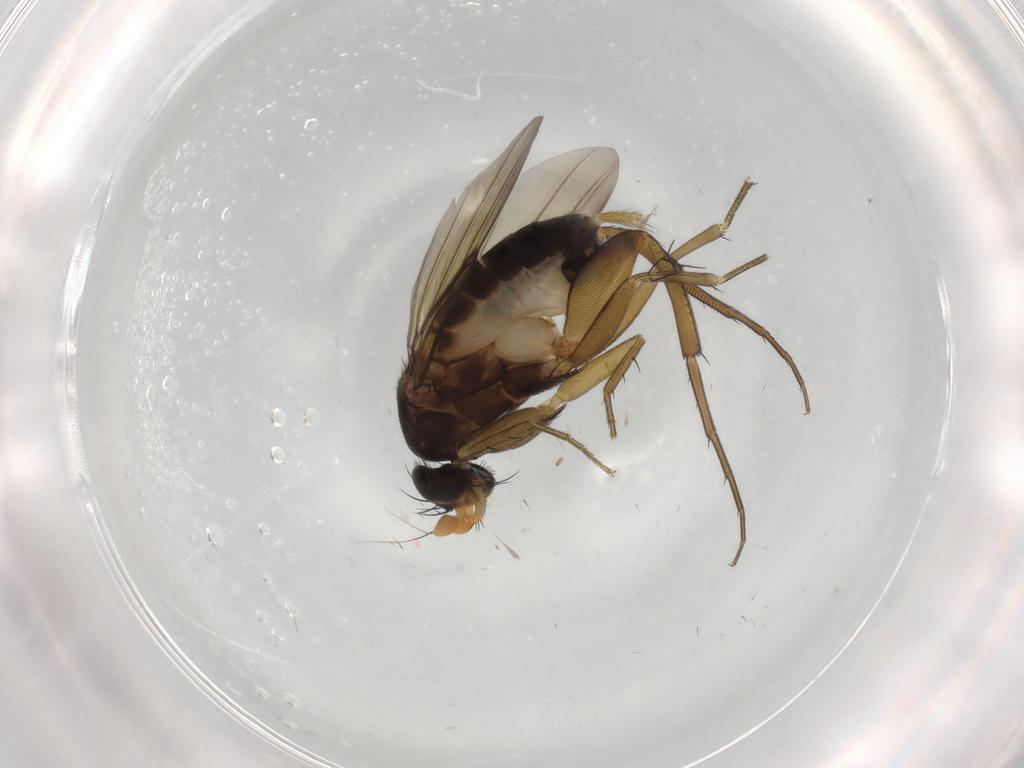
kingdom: Animalia
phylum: Arthropoda
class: Insecta
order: Diptera
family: Phoridae
